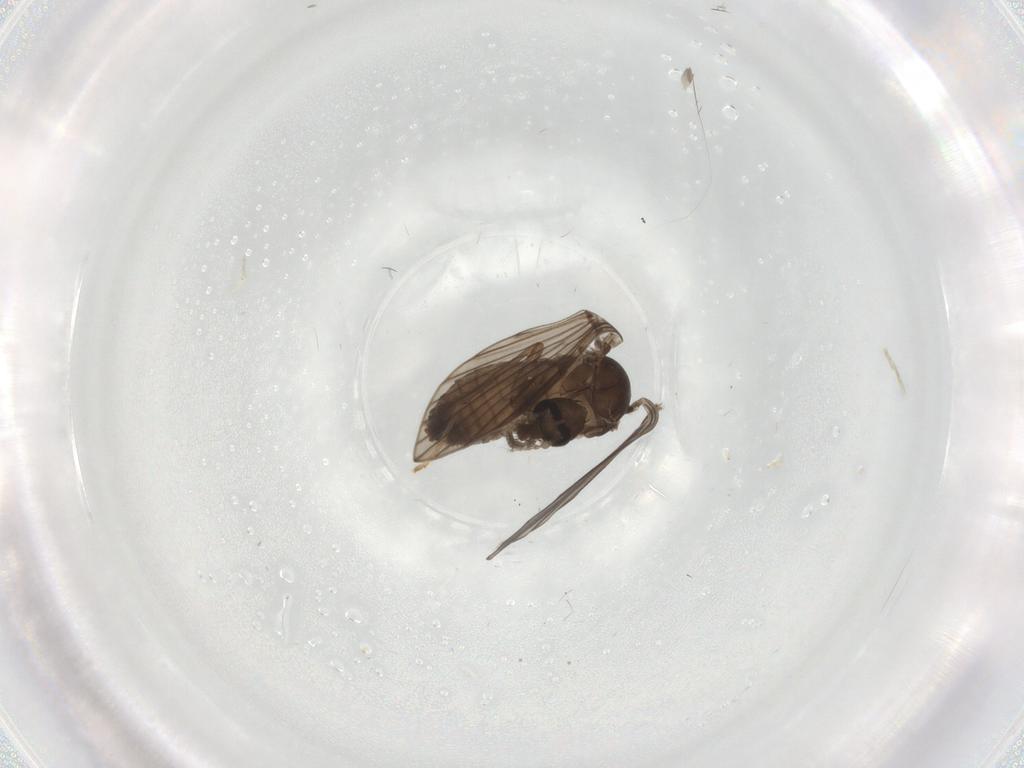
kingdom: Animalia
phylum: Arthropoda
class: Insecta
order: Diptera
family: Psychodidae
